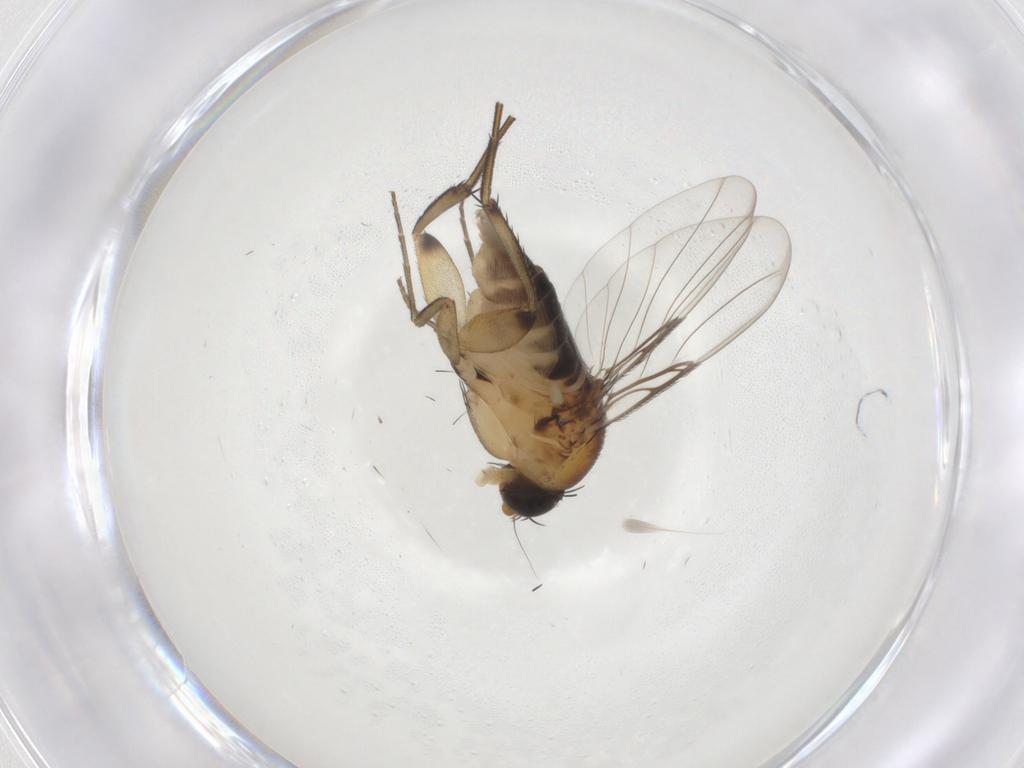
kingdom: Animalia
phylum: Arthropoda
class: Insecta
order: Diptera
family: Phoridae
